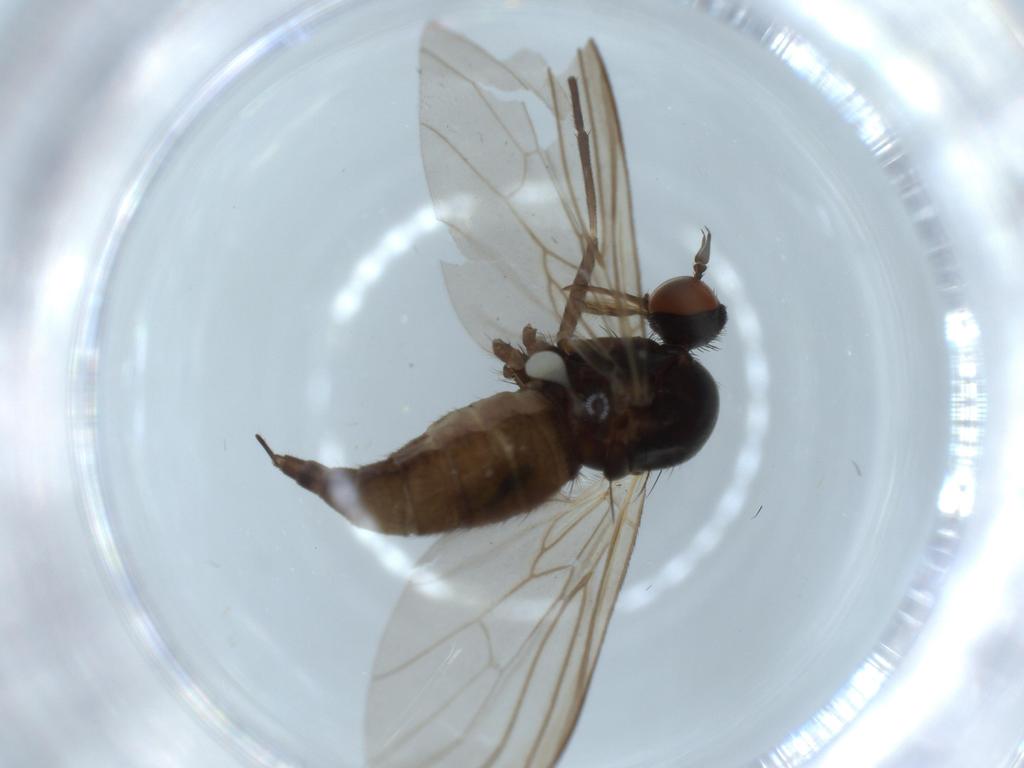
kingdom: Animalia
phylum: Arthropoda
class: Insecta
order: Diptera
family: Empididae
